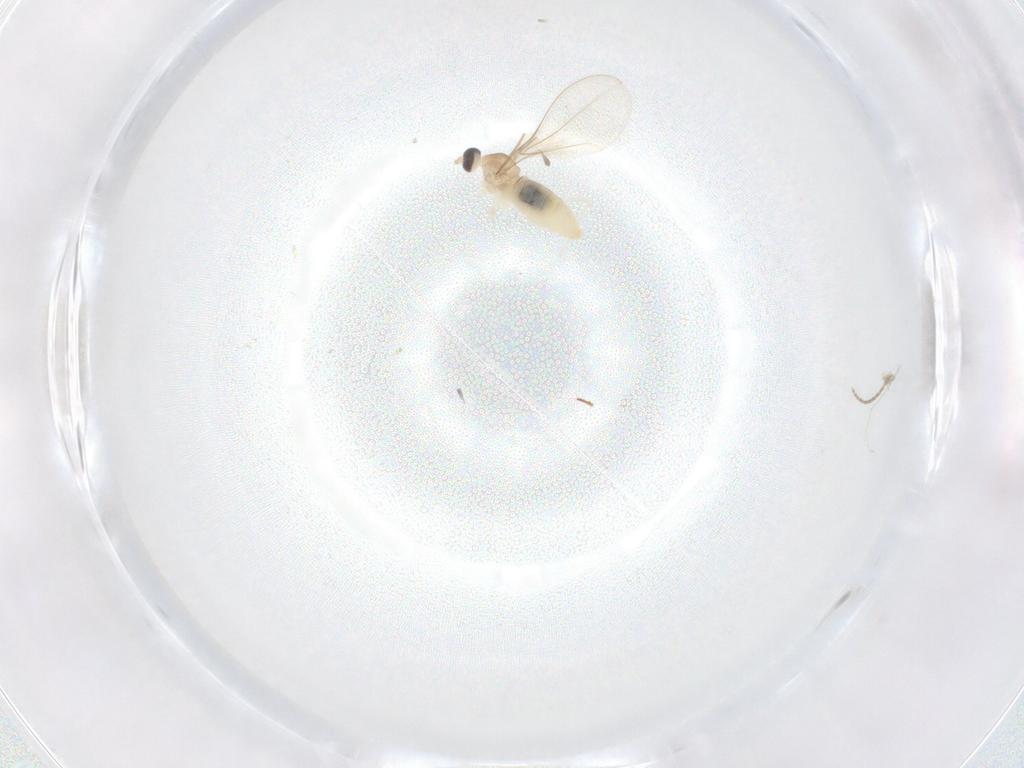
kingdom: Animalia
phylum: Arthropoda
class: Insecta
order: Diptera
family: Cecidomyiidae
